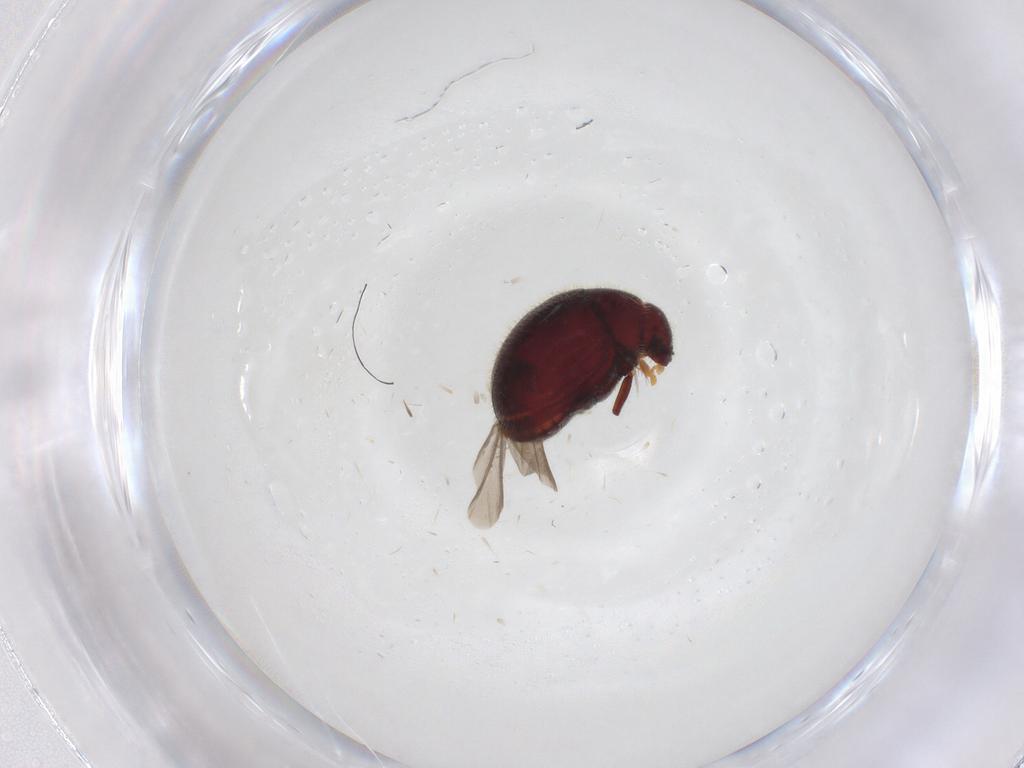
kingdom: Animalia
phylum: Arthropoda
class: Insecta
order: Coleoptera
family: Ptinidae
